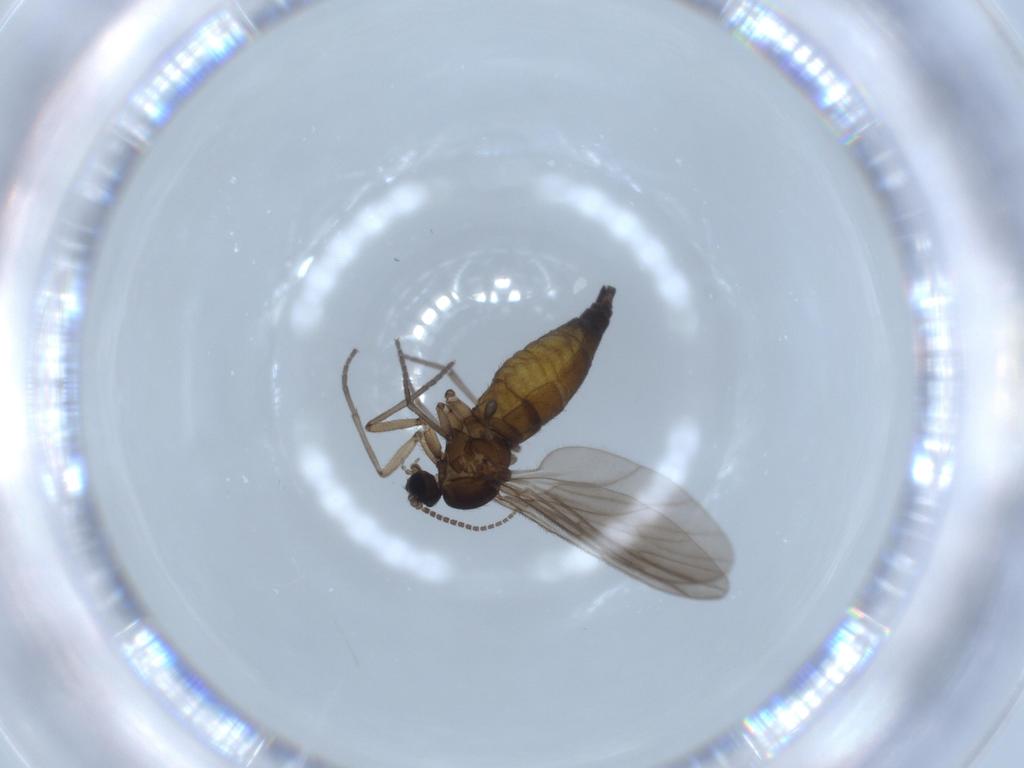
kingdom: Animalia
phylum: Arthropoda
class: Insecta
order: Diptera
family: Sciaridae
